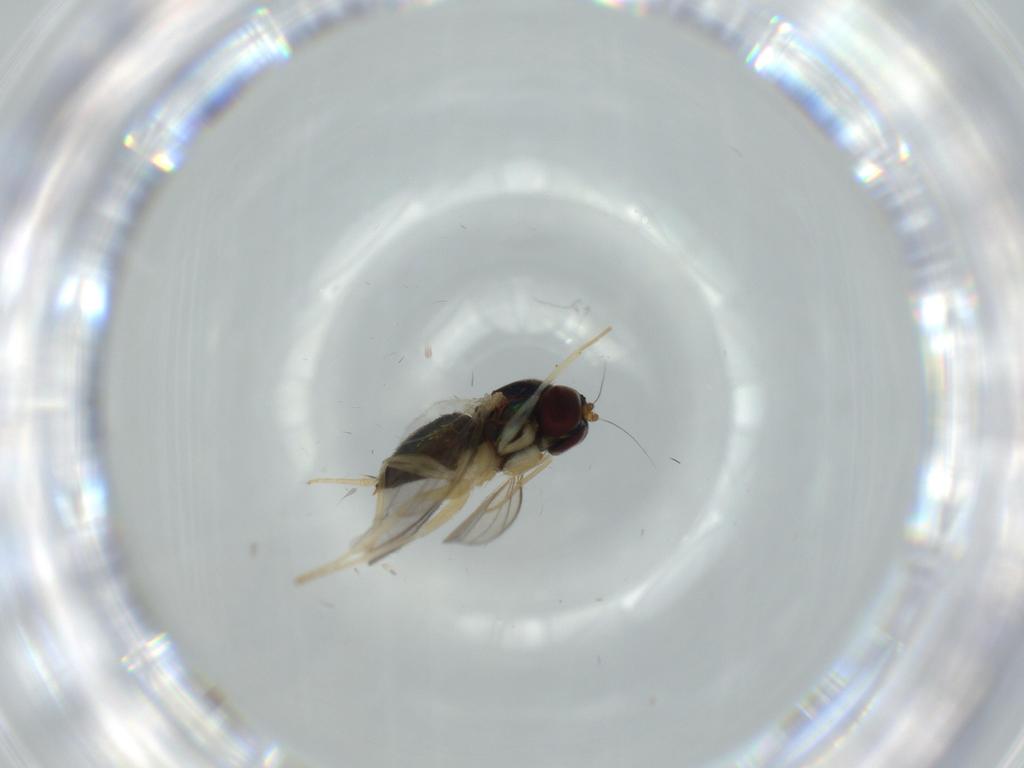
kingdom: Animalia
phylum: Arthropoda
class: Insecta
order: Diptera
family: Dolichopodidae
